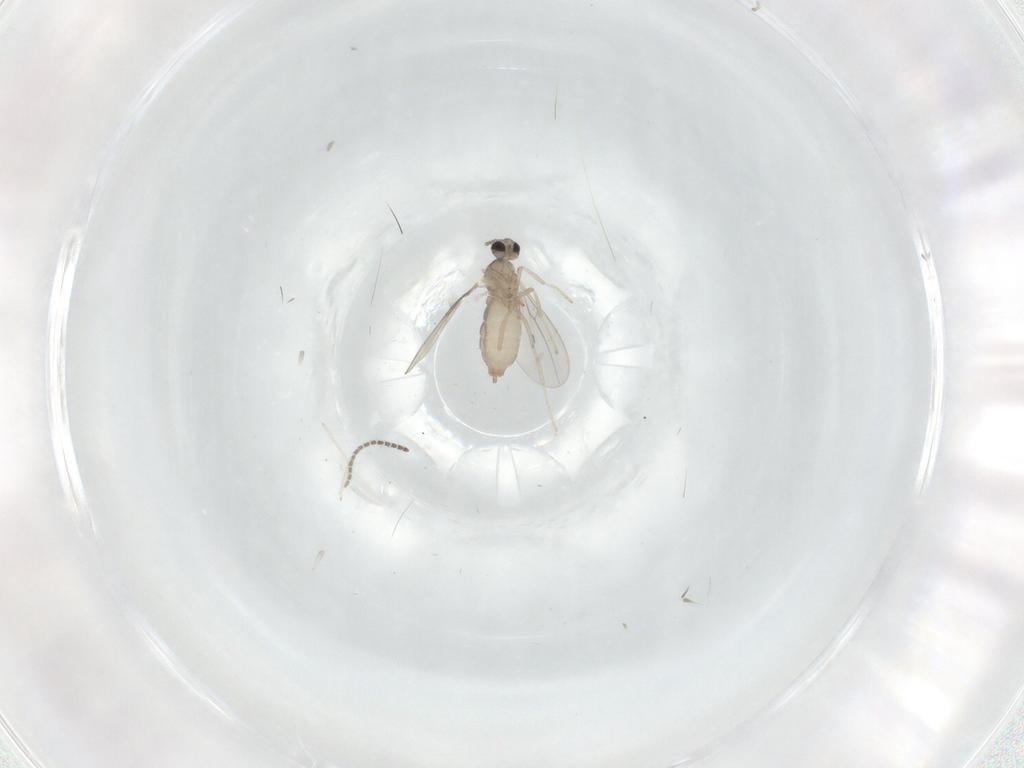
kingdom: Animalia
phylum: Arthropoda
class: Insecta
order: Diptera
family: Cecidomyiidae
